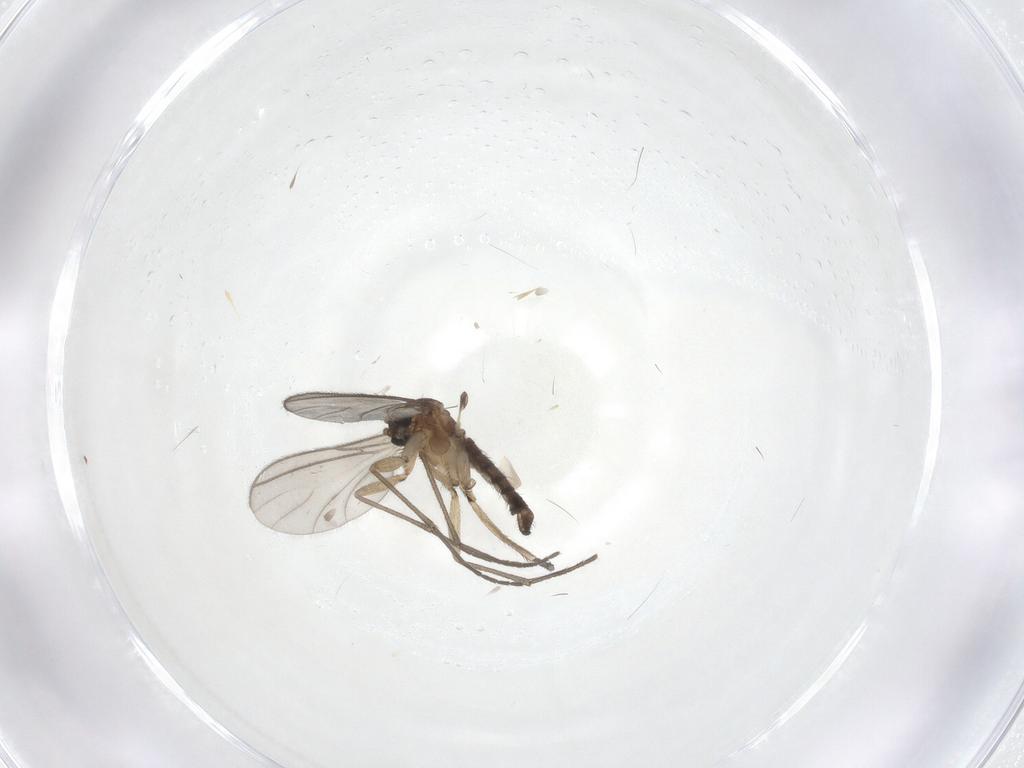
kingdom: Animalia
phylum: Arthropoda
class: Insecta
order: Diptera
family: Sciaridae
